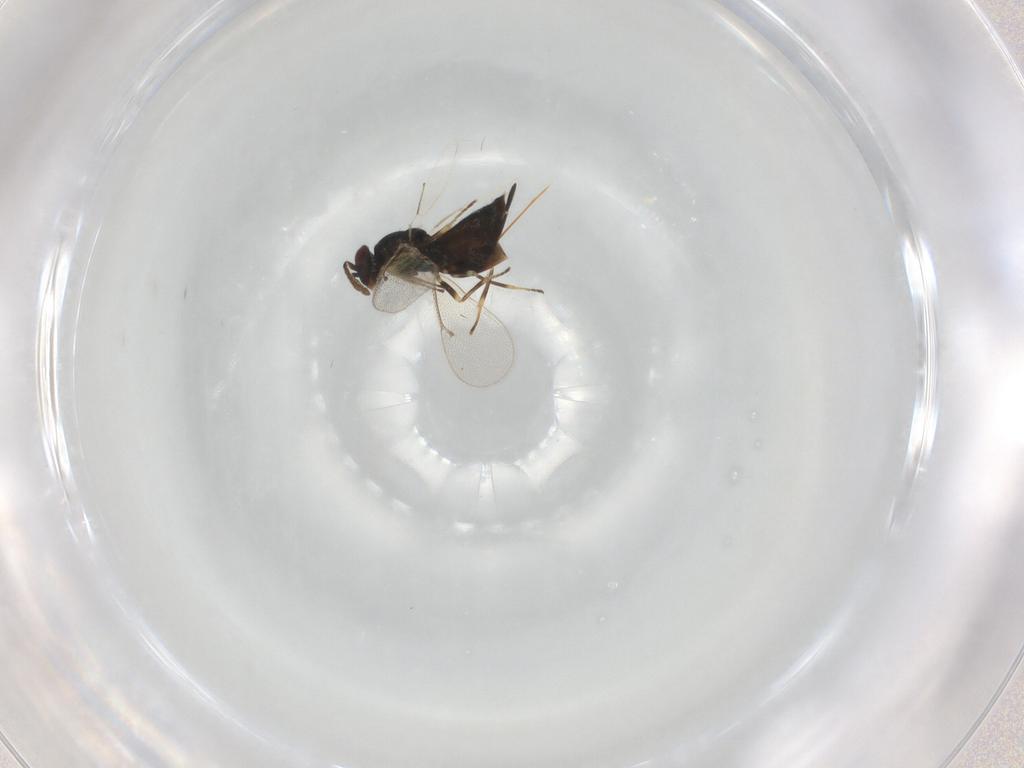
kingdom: Animalia
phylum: Arthropoda
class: Insecta
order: Hymenoptera
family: Eulophidae
